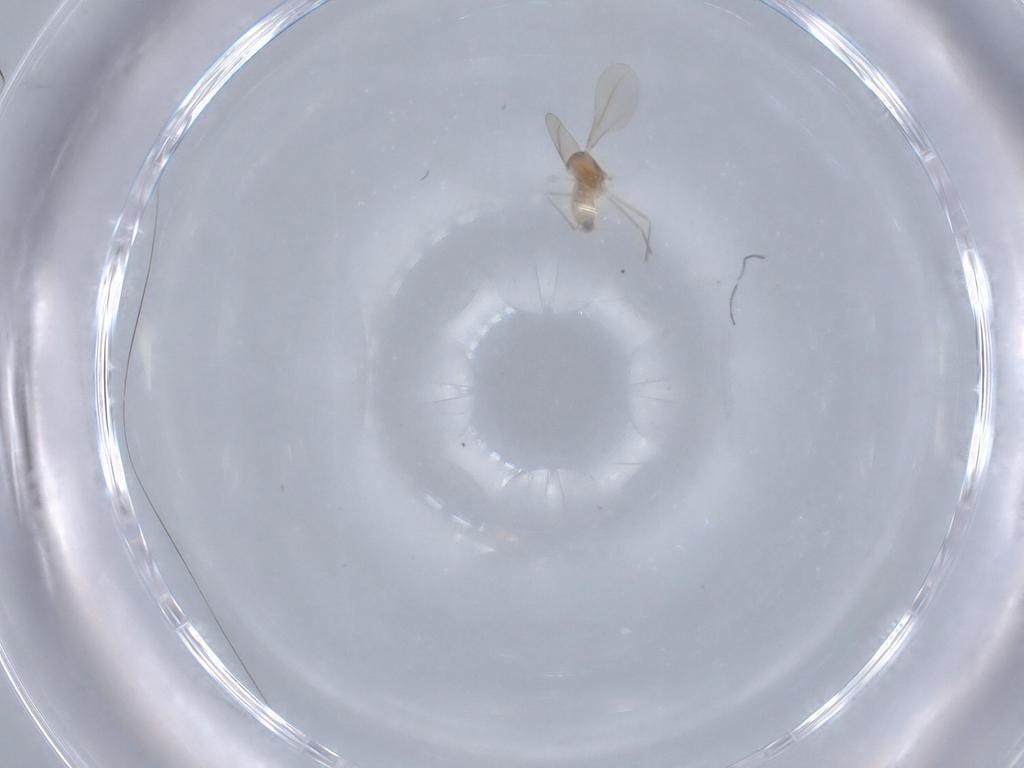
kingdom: Animalia
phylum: Arthropoda
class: Insecta
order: Diptera
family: Cecidomyiidae
